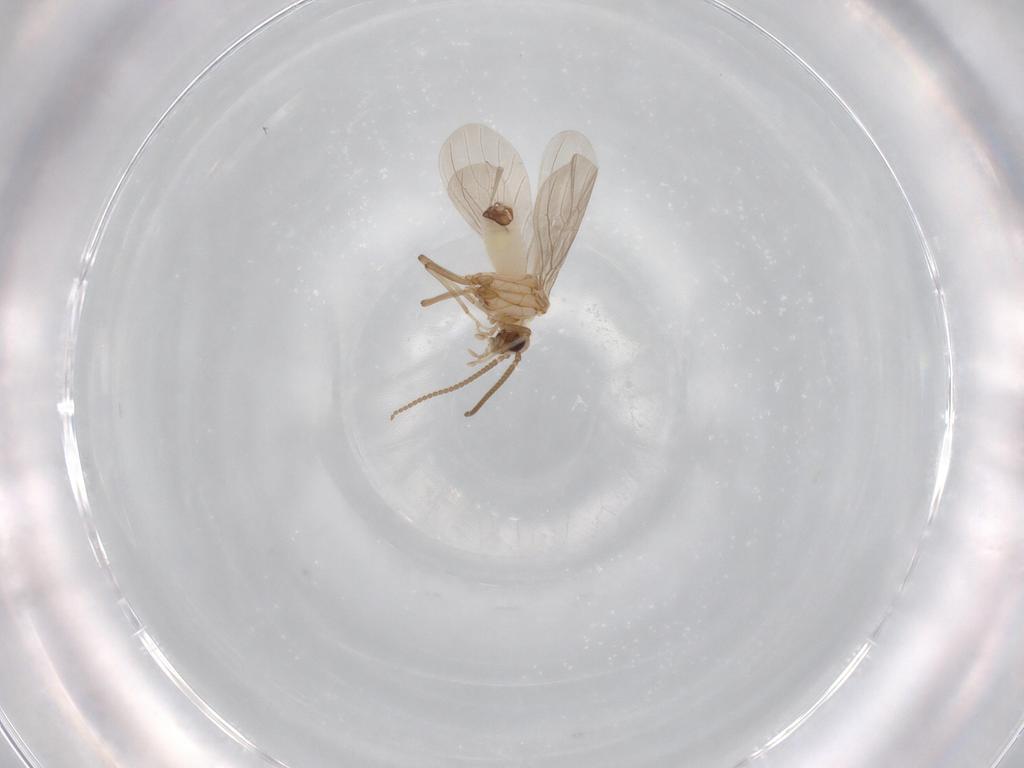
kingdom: Animalia
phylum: Arthropoda
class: Insecta
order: Neuroptera
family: Coniopterygidae
